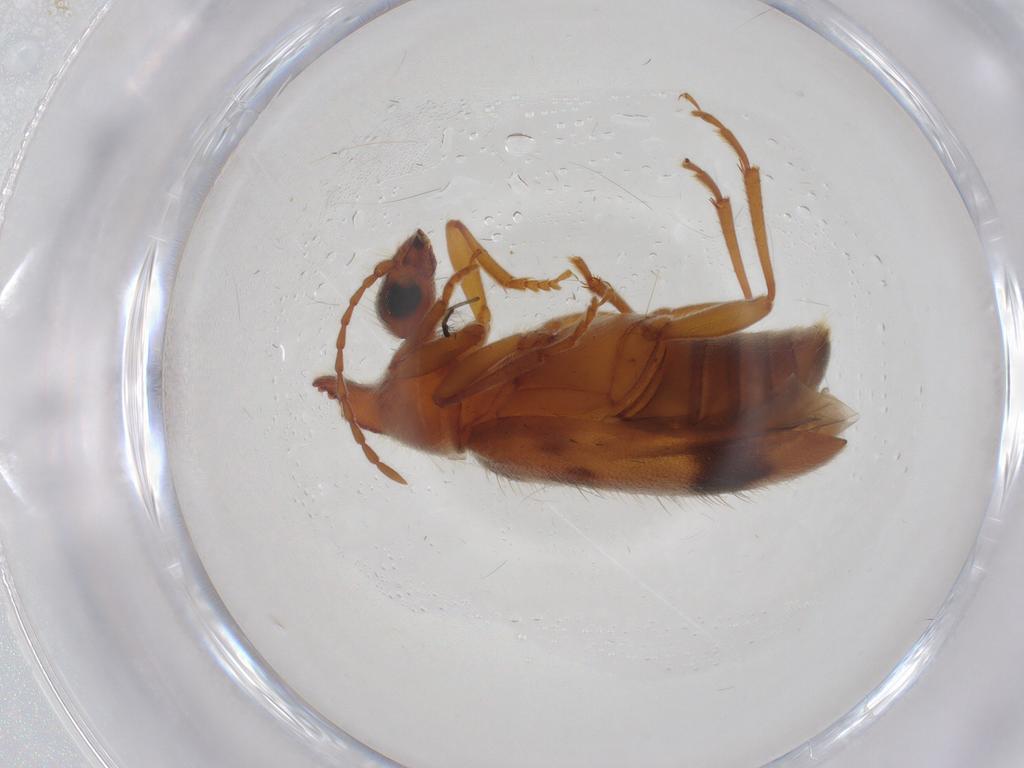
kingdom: Animalia
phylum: Arthropoda
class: Insecta
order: Coleoptera
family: Anthicidae
